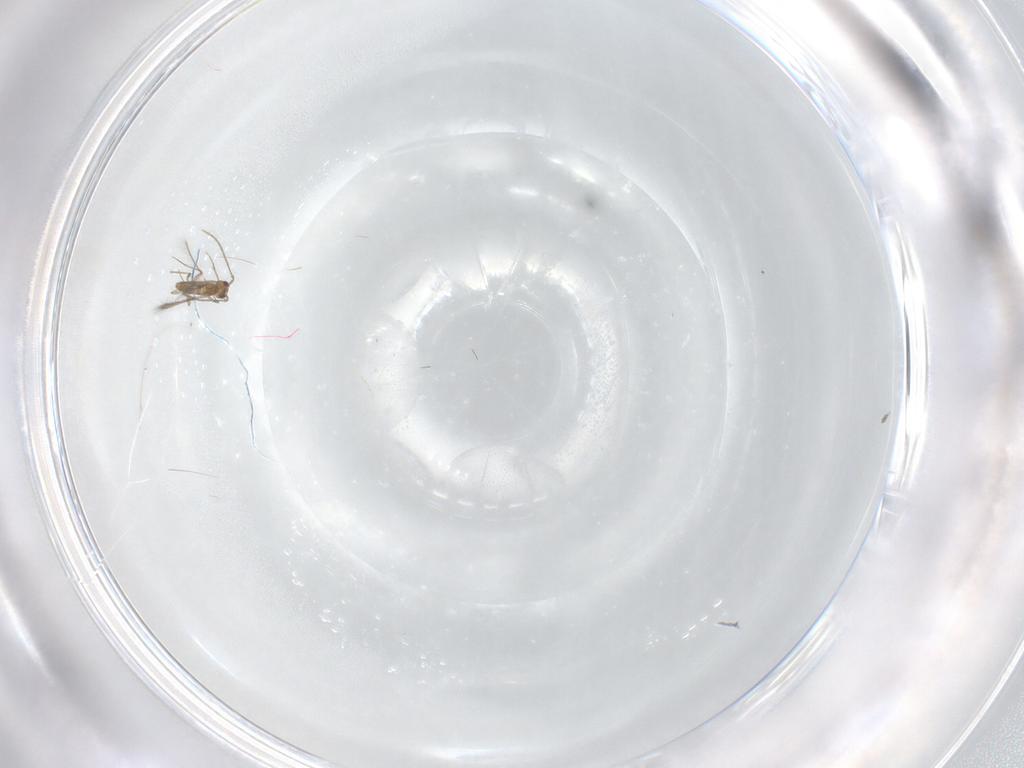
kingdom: Animalia
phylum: Arthropoda
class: Insecta
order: Hymenoptera
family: Mymaridae
